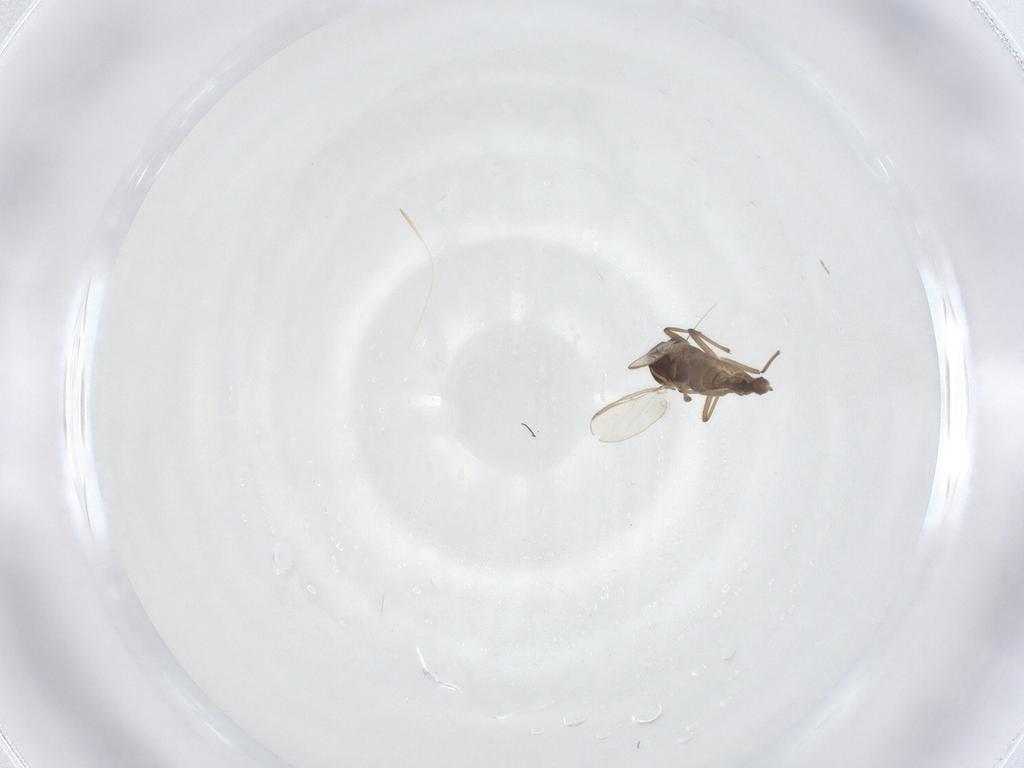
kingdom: Animalia
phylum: Arthropoda
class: Insecta
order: Diptera
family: Chironomidae
